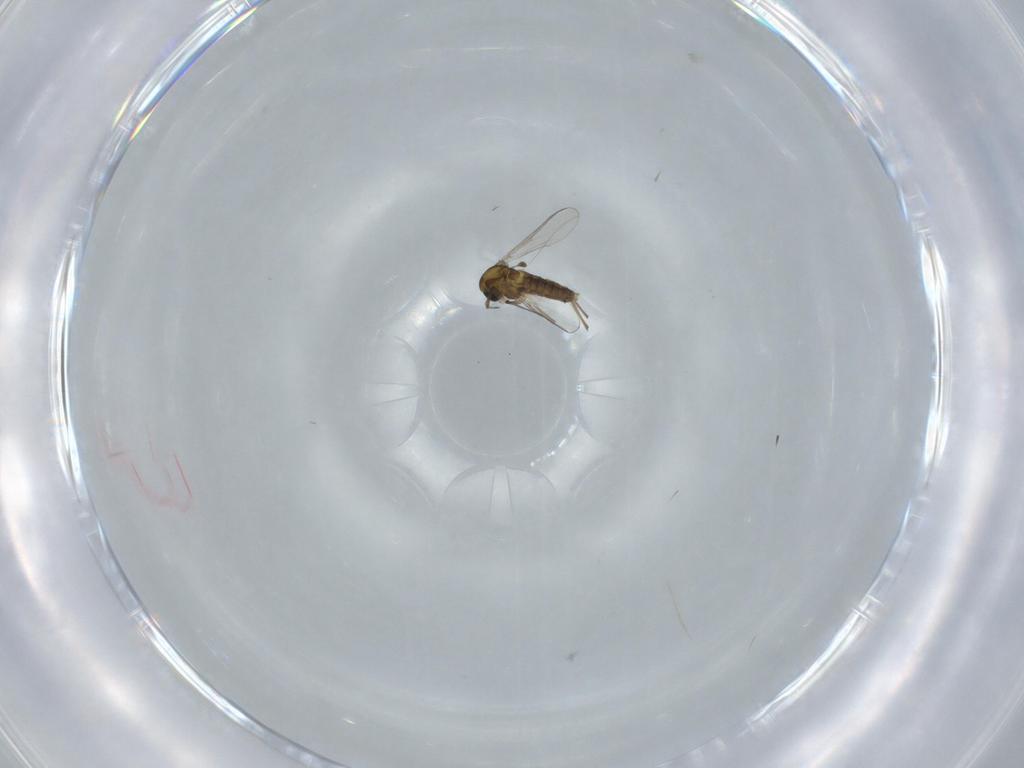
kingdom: Animalia
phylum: Arthropoda
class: Insecta
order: Diptera
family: Chironomidae
